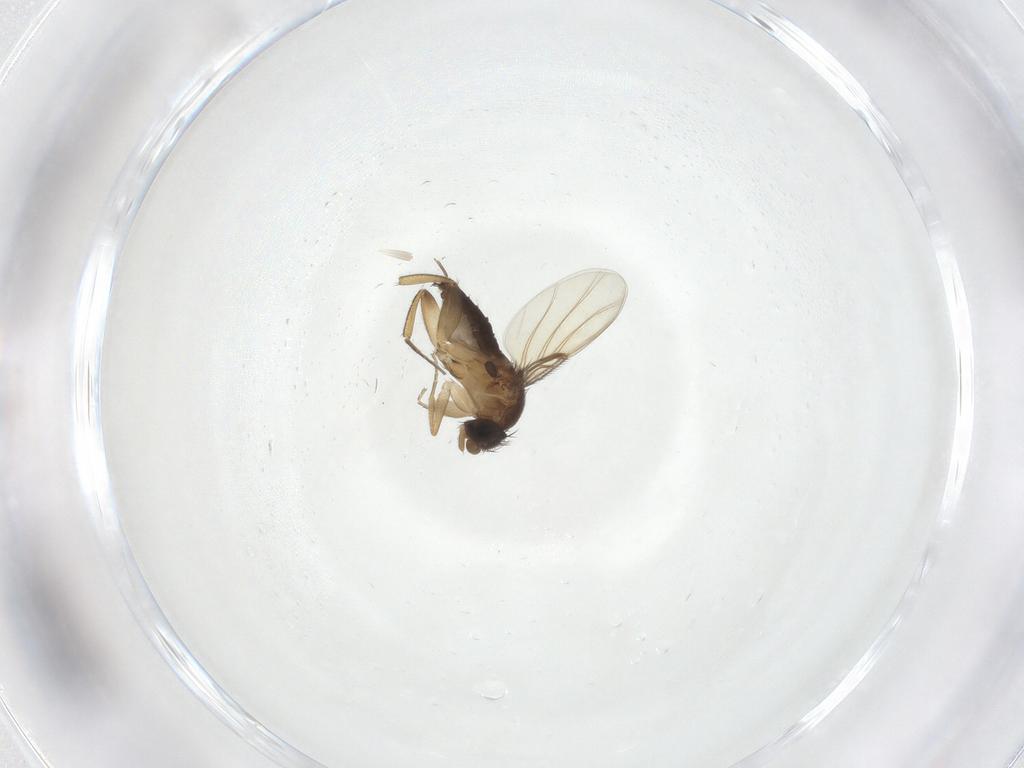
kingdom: Animalia
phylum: Arthropoda
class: Insecta
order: Diptera
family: Phoridae
